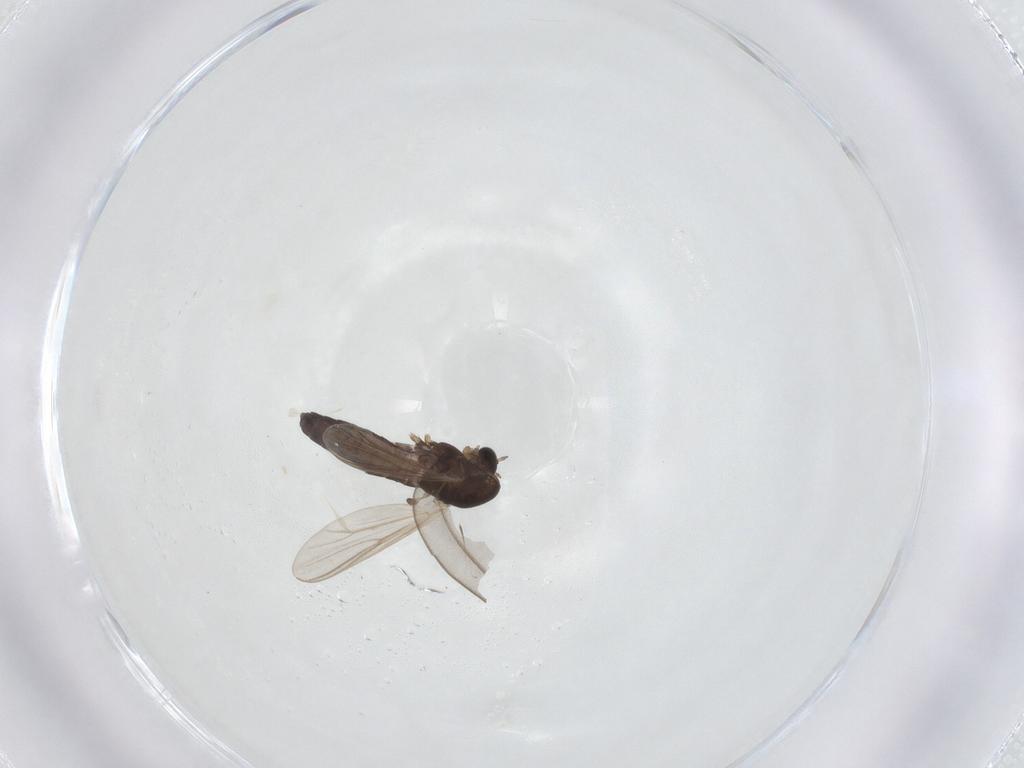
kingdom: Animalia
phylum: Arthropoda
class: Insecta
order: Diptera
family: Chironomidae
